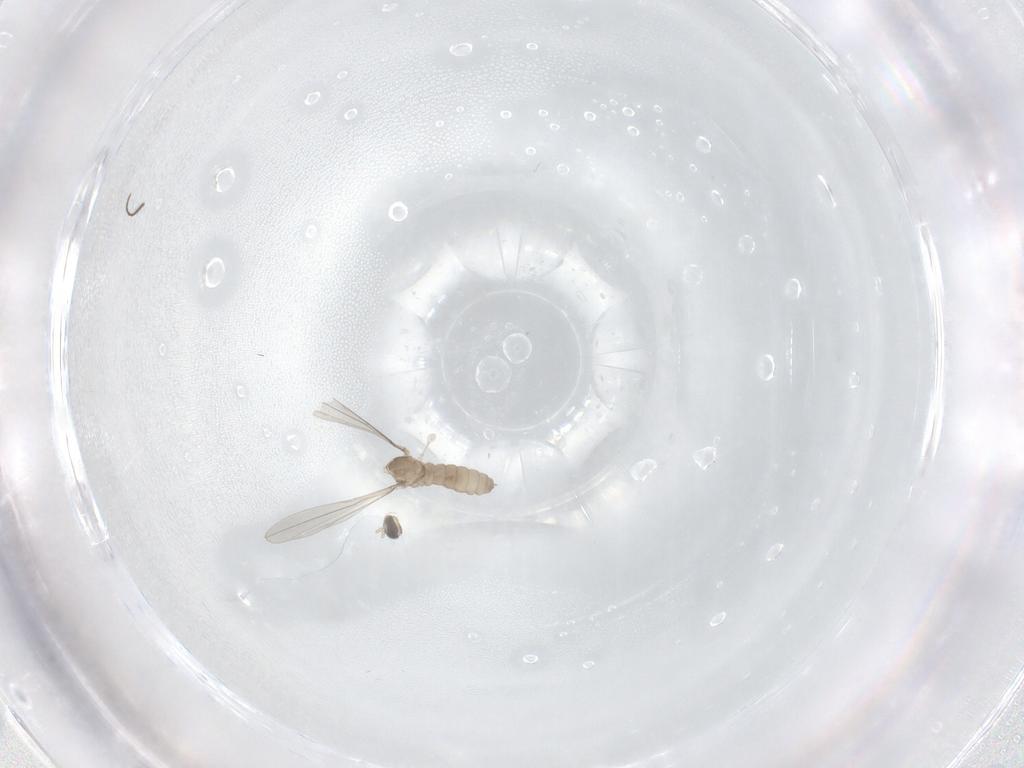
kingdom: Animalia
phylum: Arthropoda
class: Insecta
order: Diptera
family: Cecidomyiidae
